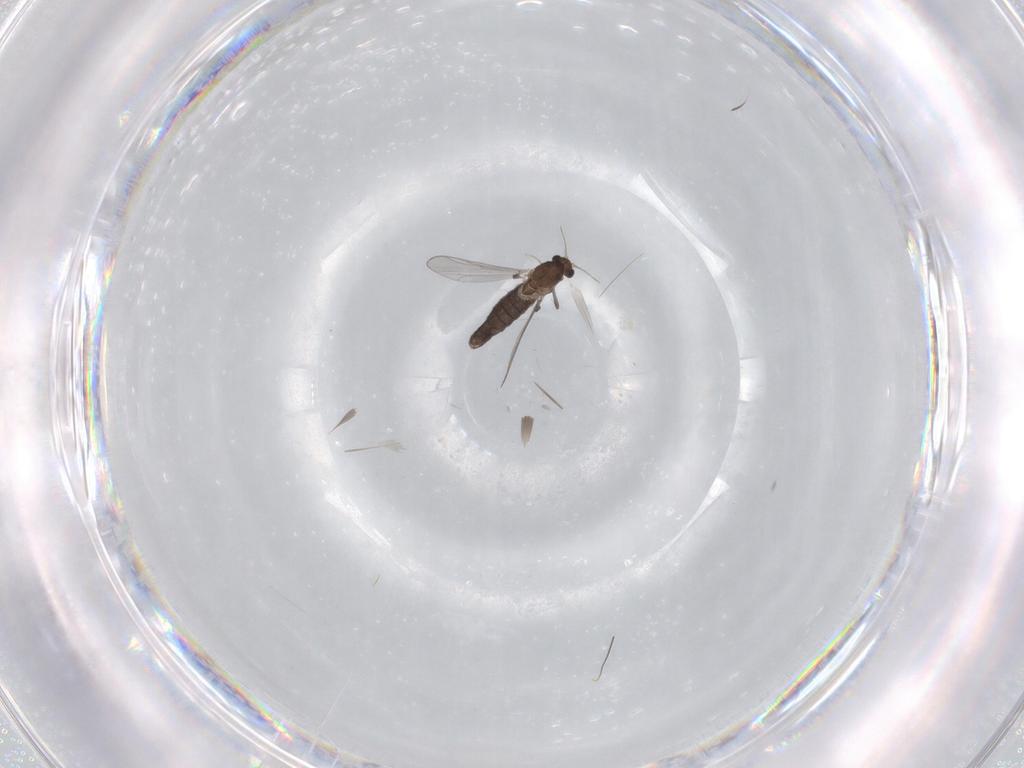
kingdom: Animalia
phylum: Arthropoda
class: Insecta
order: Diptera
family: Chironomidae
